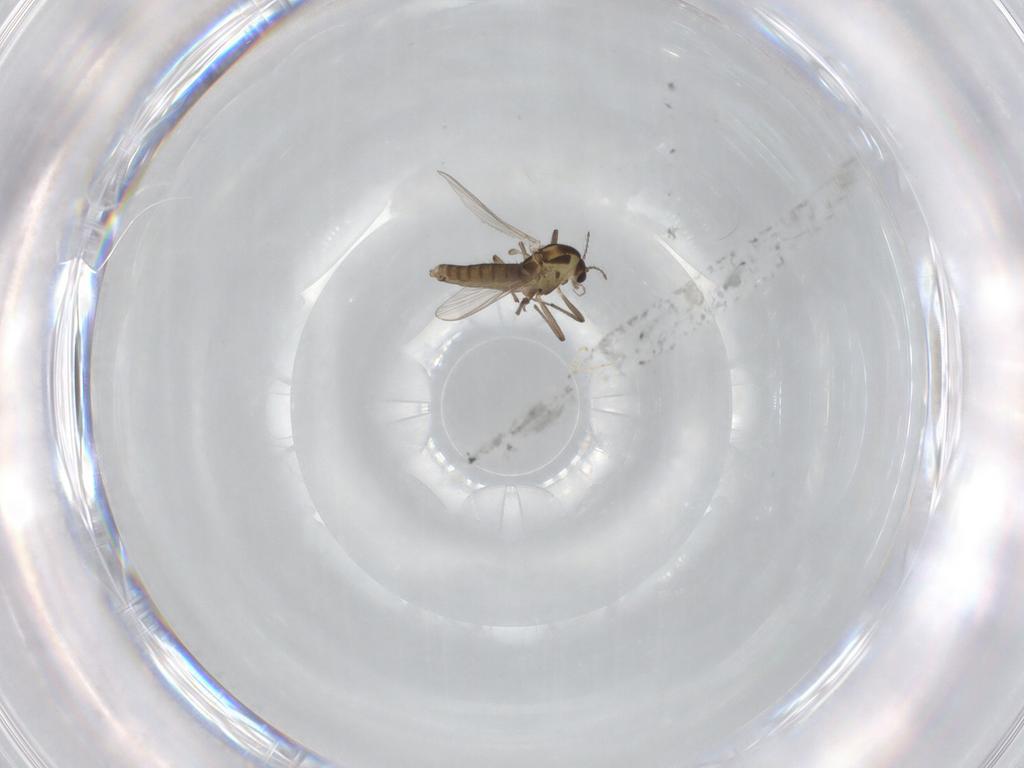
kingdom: Animalia
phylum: Arthropoda
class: Insecta
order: Diptera
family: Chironomidae
